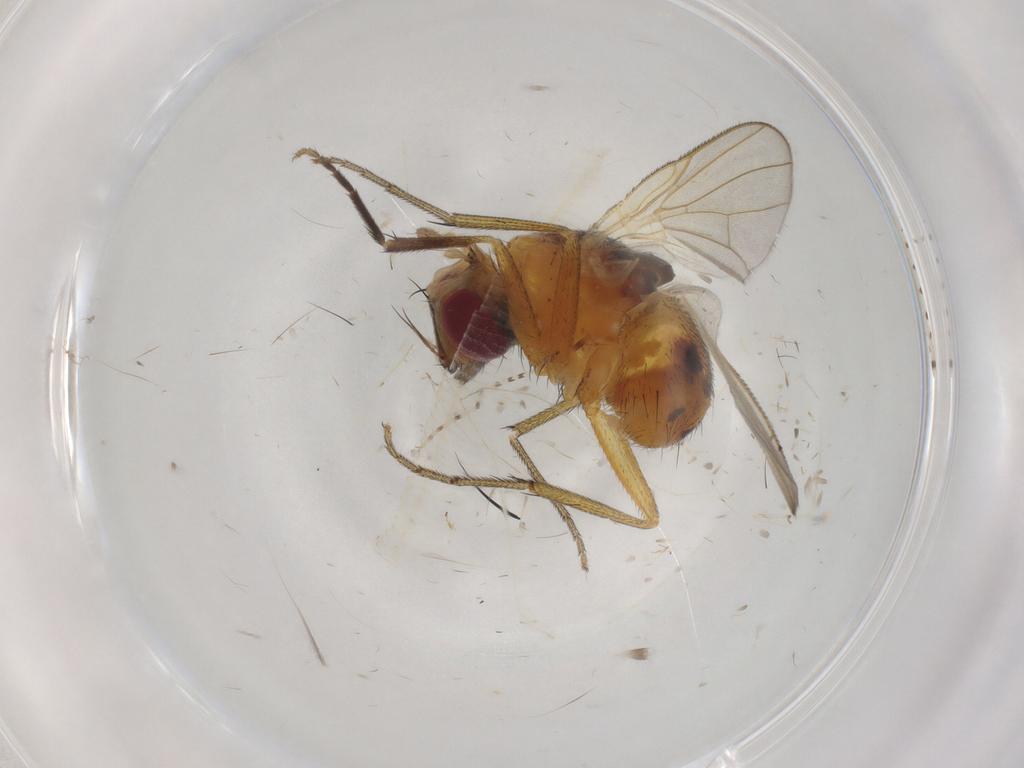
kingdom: Animalia
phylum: Arthropoda
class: Insecta
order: Diptera
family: Muscidae
